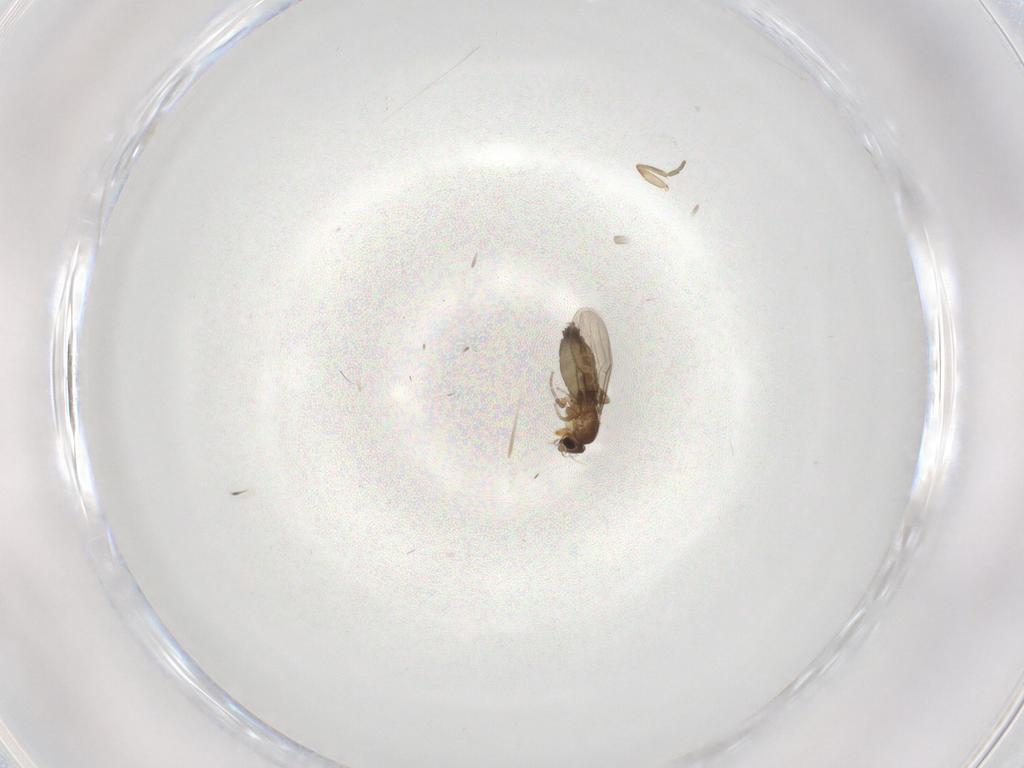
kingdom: Animalia
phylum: Arthropoda
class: Insecta
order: Diptera
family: Phoridae
